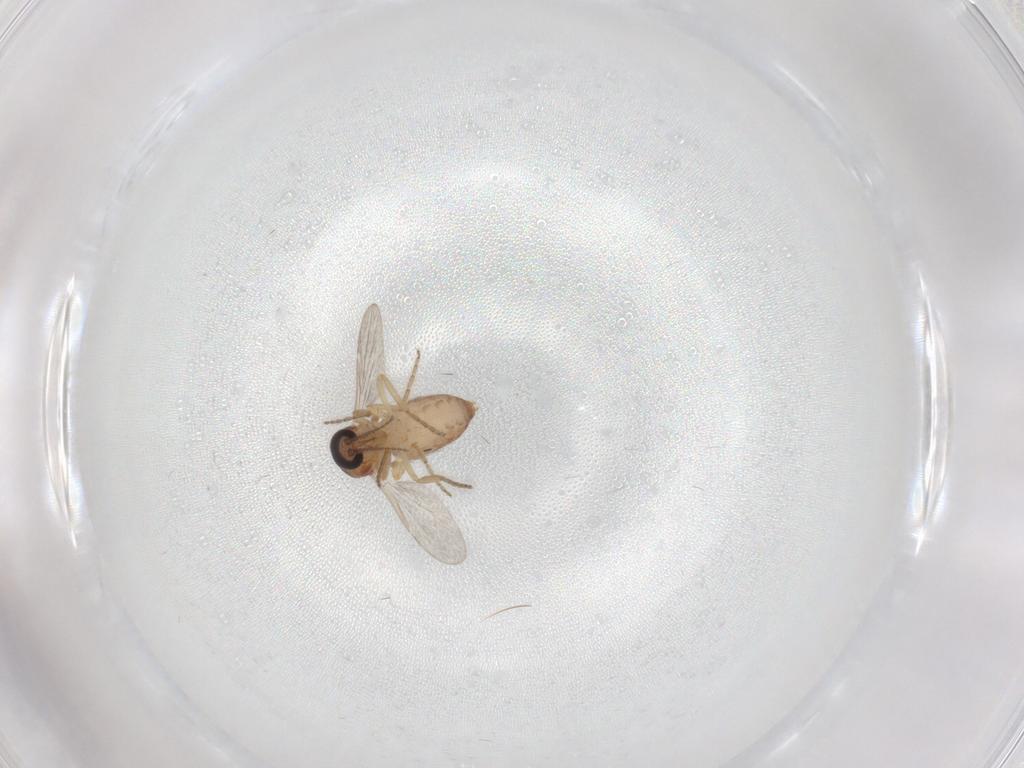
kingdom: Animalia
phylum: Arthropoda
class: Insecta
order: Diptera
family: Ceratopogonidae
